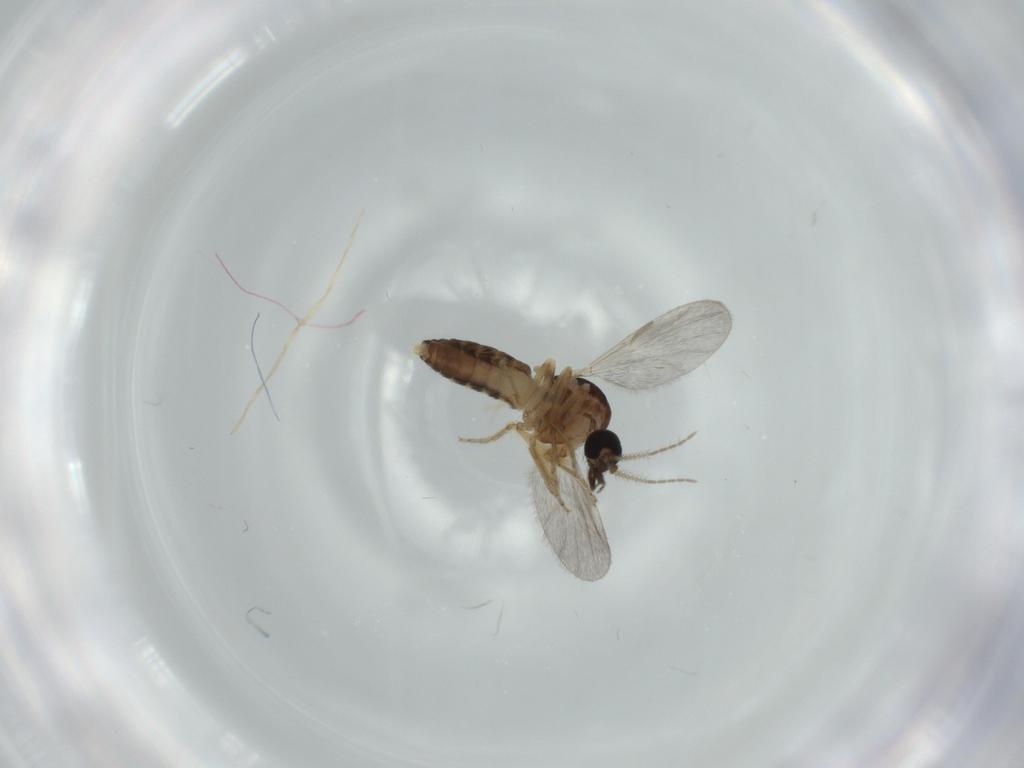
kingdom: Animalia
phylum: Arthropoda
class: Insecta
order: Diptera
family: Ceratopogonidae
